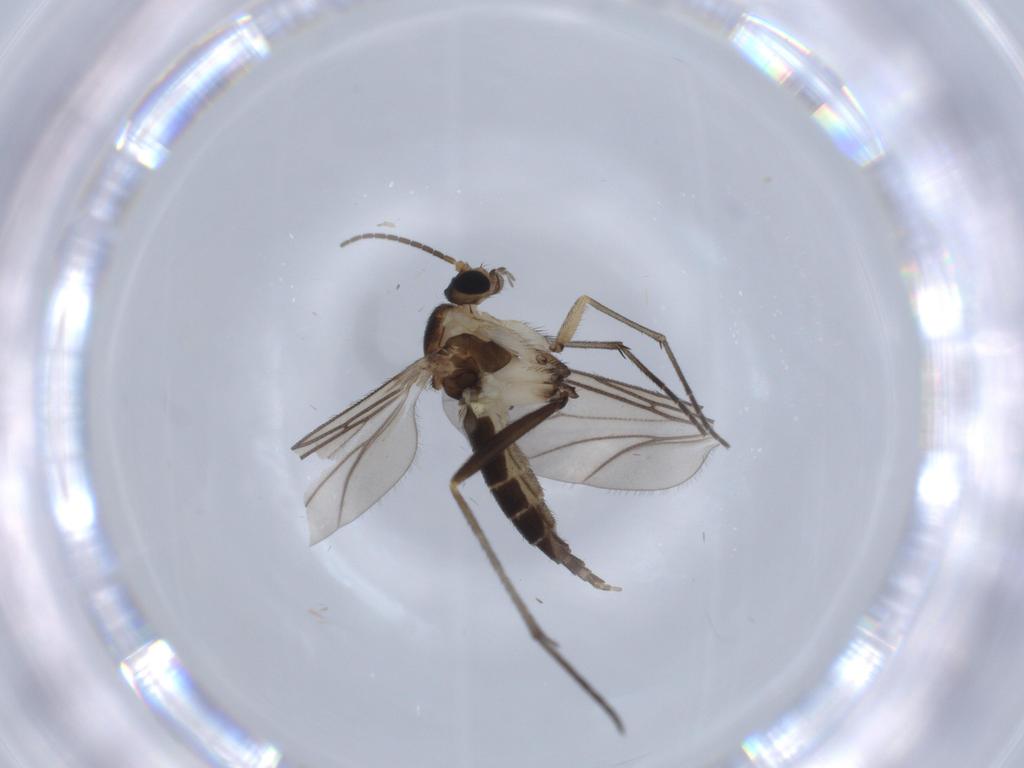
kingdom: Animalia
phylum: Arthropoda
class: Insecta
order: Diptera
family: Sciaridae
